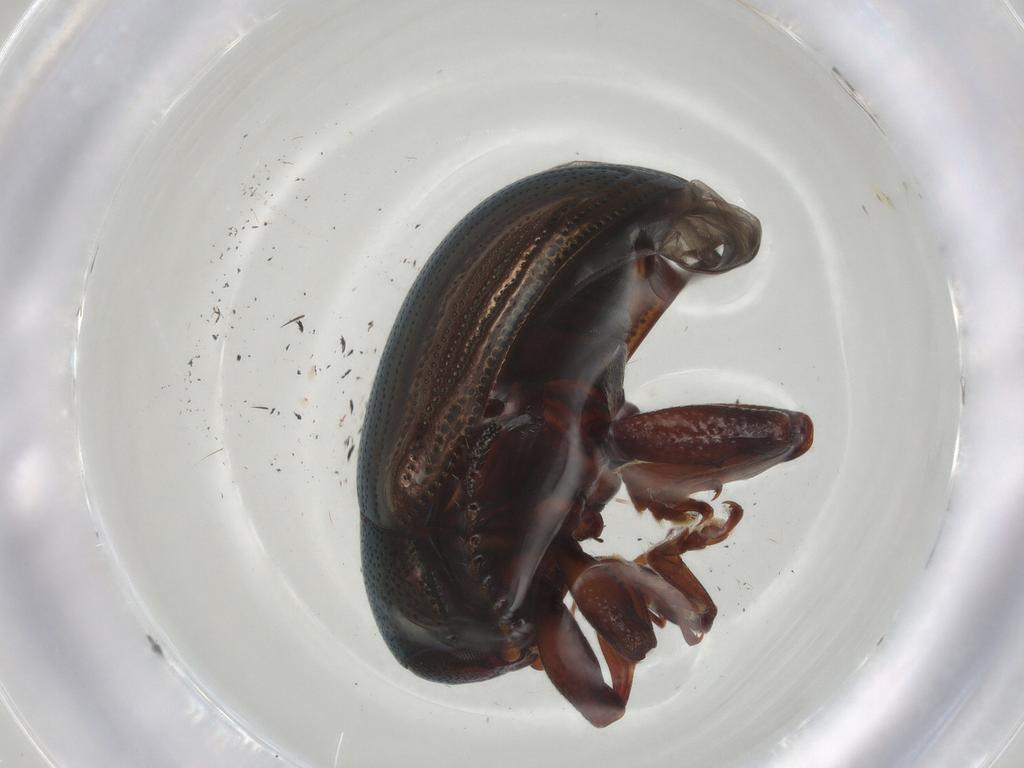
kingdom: Animalia
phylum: Arthropoda
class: Insecta
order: Coleoptera
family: Chrysomelidae
